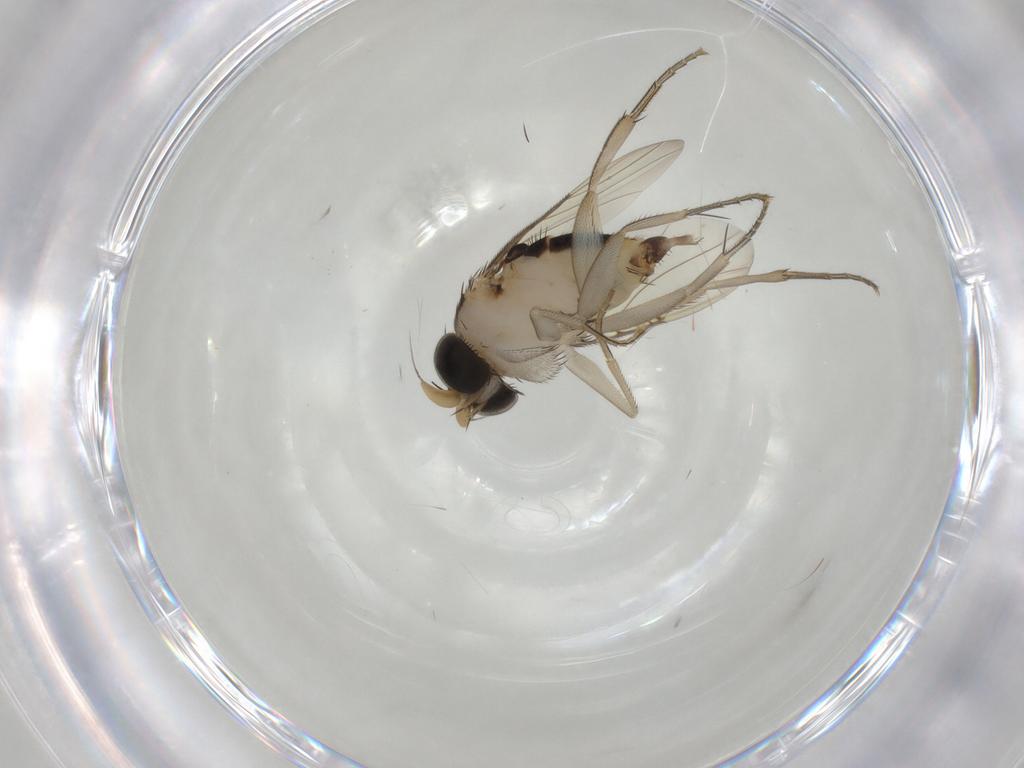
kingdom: Animalia
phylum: Arthropoda
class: Insecta
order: Diptera
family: Phoridae
